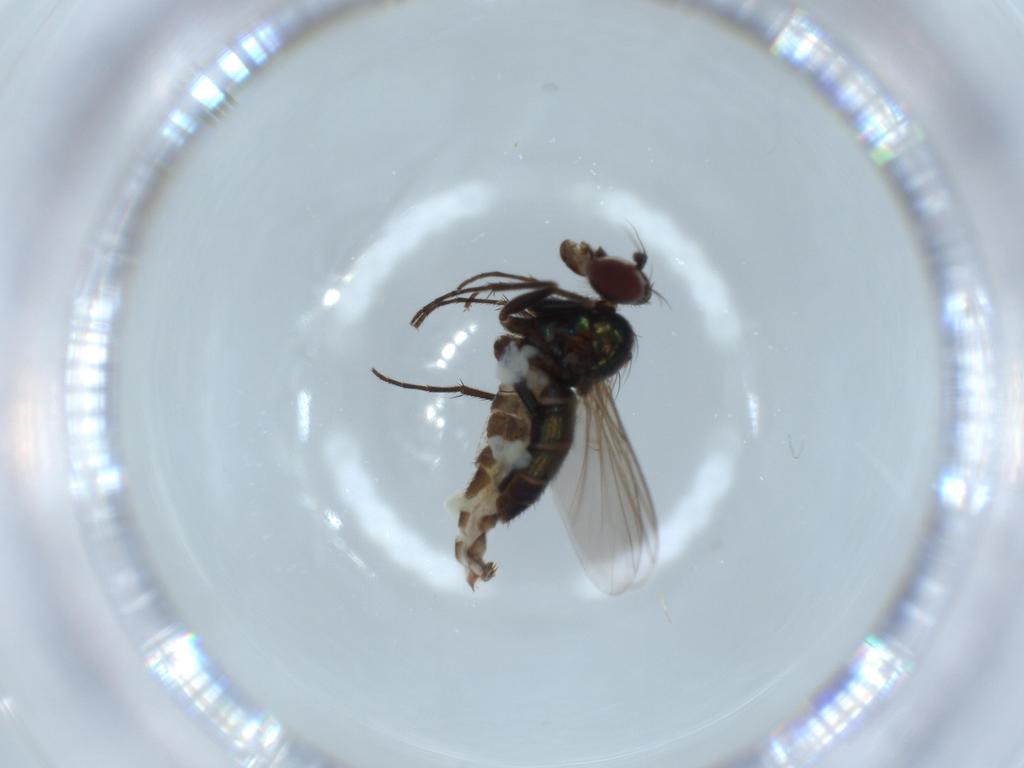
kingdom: Animalia
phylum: Arthropoda
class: Insecta
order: Diptera
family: Dolichopodidae
